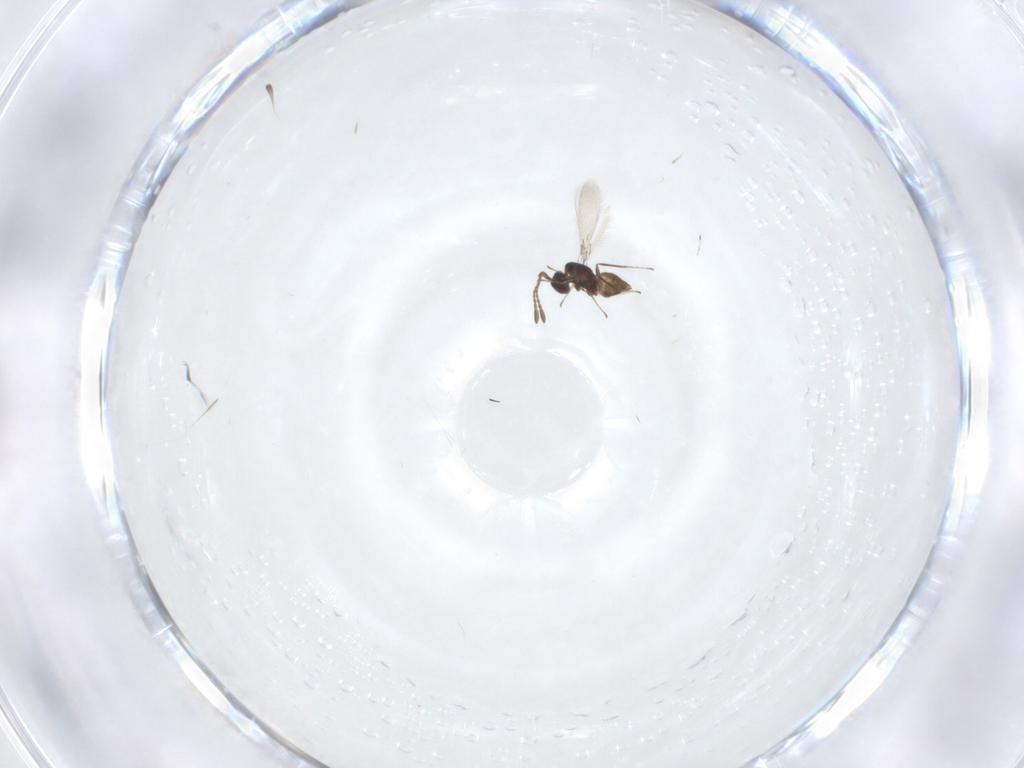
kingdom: Animalia
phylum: Arthropoda
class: Insecta
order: Hymenoptera
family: Mymaridae
